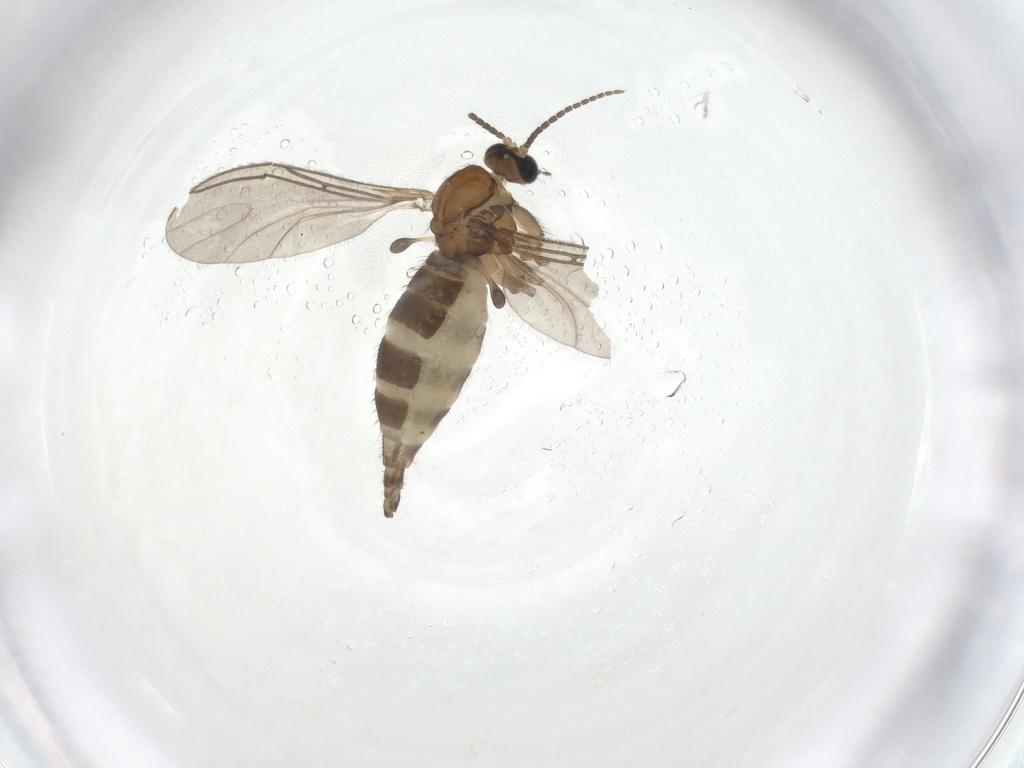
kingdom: Animalia
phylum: Arthropoda
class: Insecta
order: Diptera
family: Sciaridae
